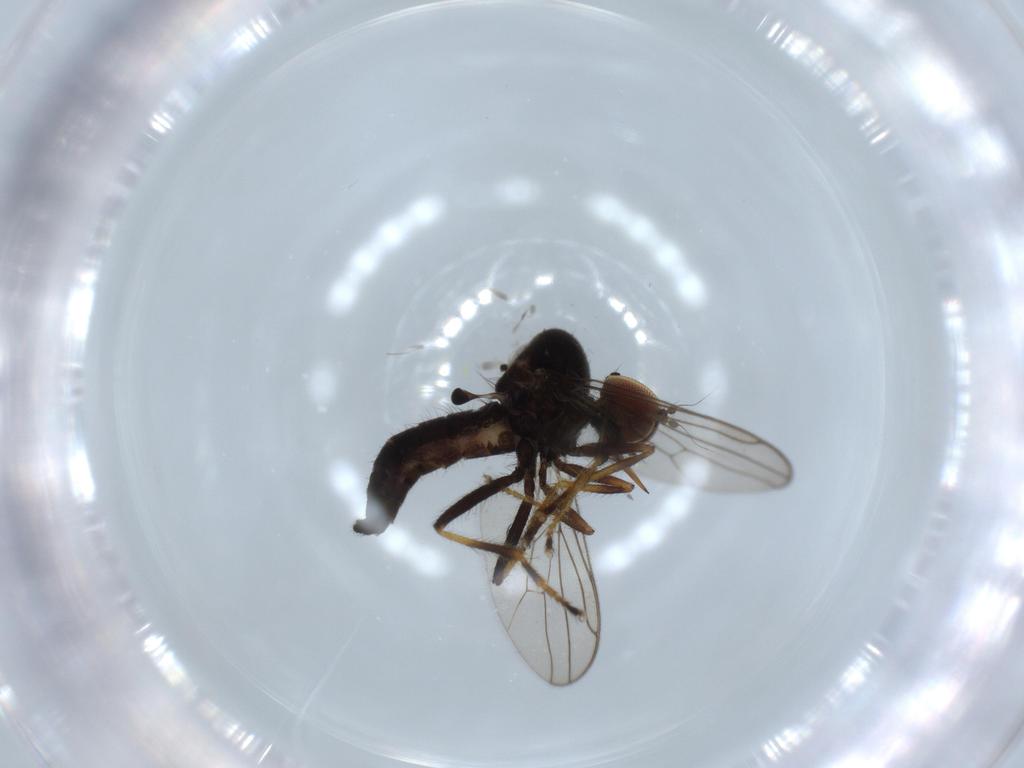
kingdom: Animalia
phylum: Arthropoda
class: Insecta
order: Diptera
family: Hybotidae
